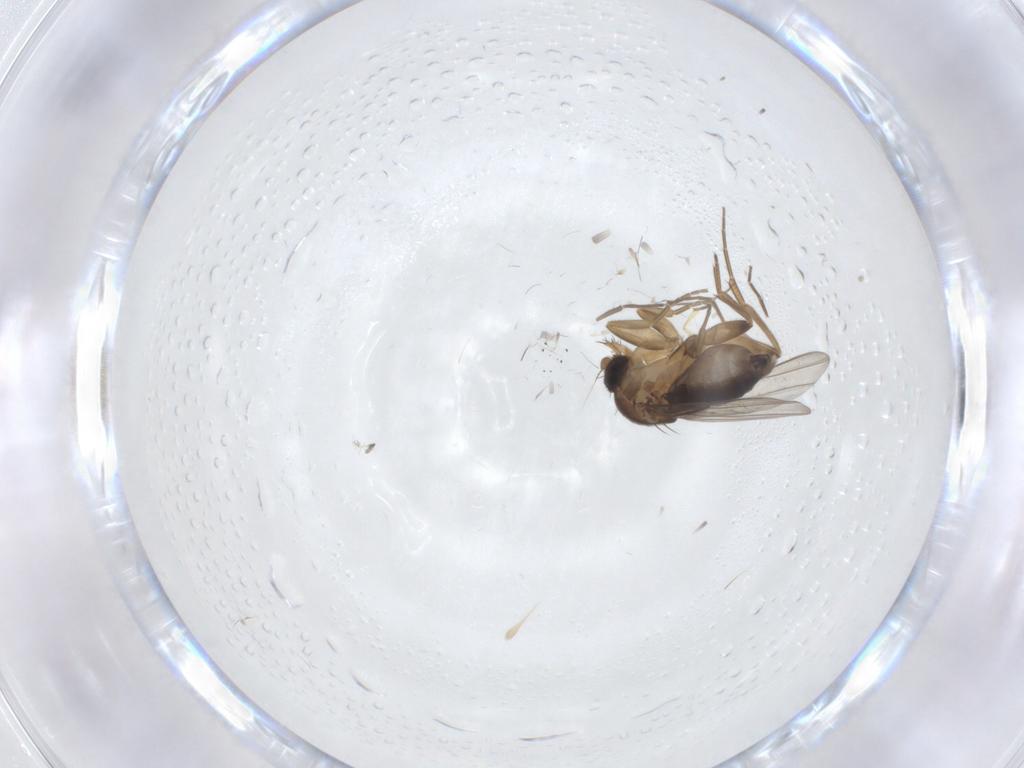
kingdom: Animalia
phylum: Arthropoda
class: Insecta
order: Diptera
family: Phoridae
